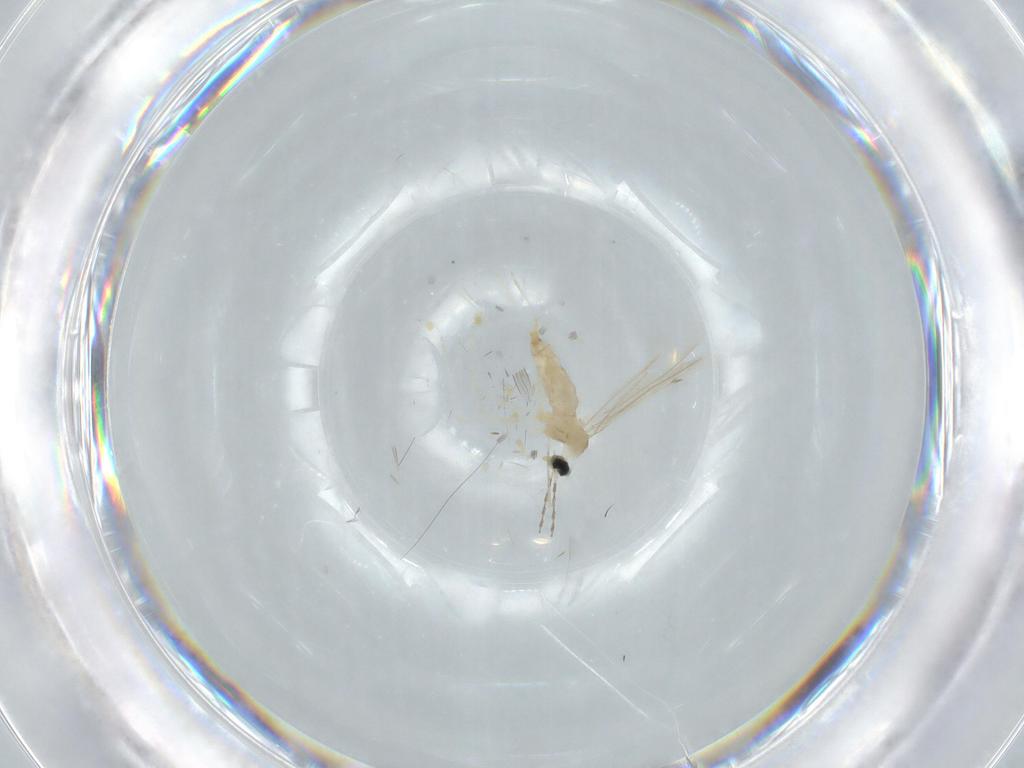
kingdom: Animalia
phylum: Arthropoda
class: Insecta
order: Diptera
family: Cecidomyiidae
